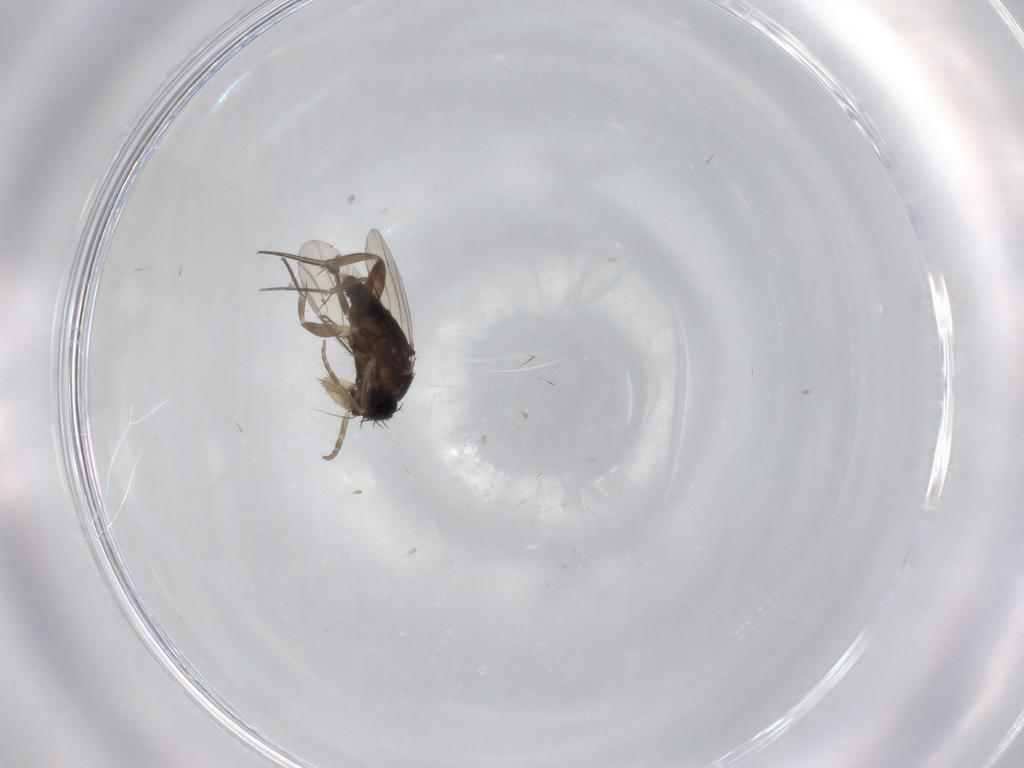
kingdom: Animalia
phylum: Arthropoda
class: Insecta
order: Diptera
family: Phoridae
